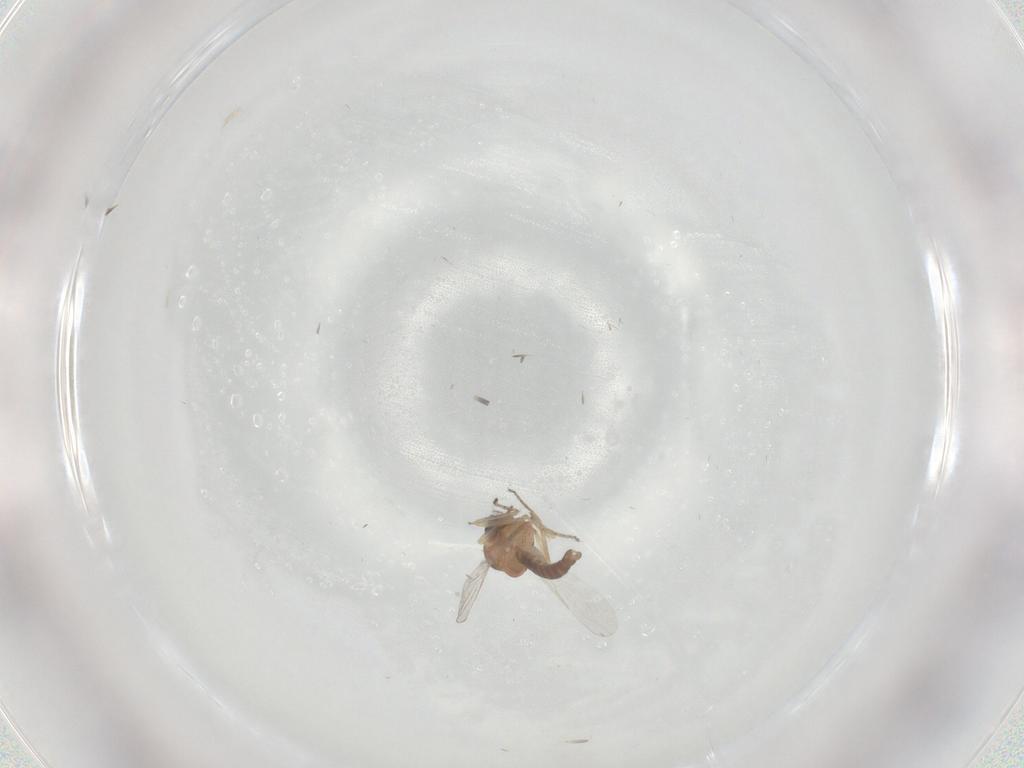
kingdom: Animalia
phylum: Arthropoda
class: Insecta
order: Diptera
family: Ceratopogonidae
